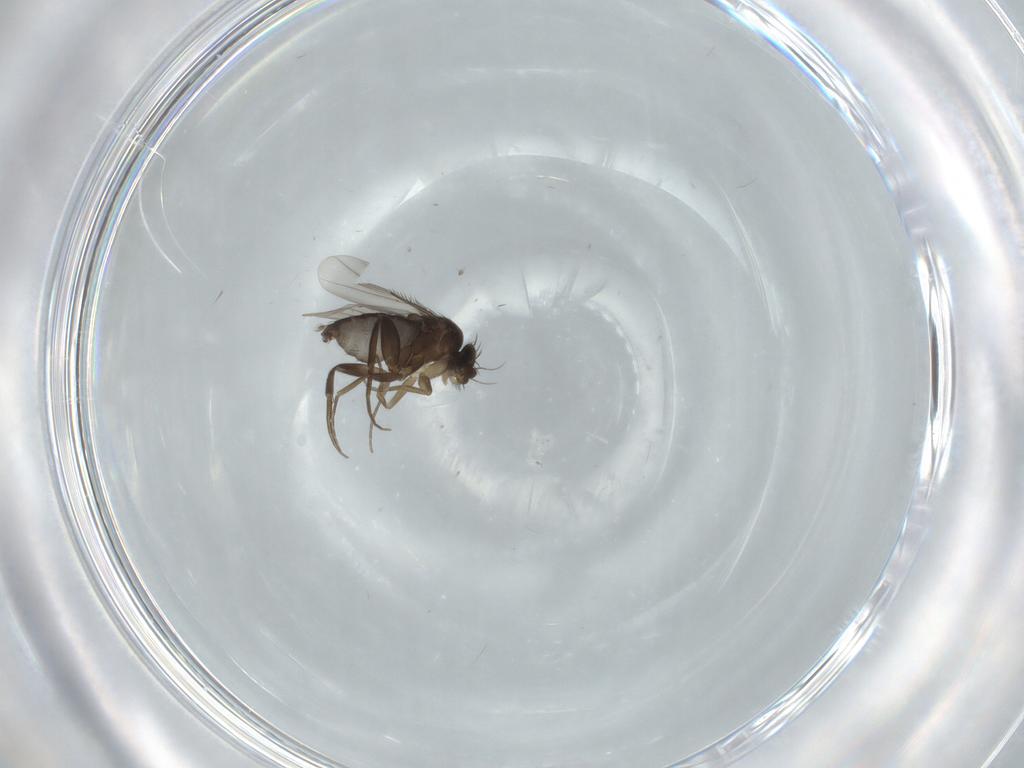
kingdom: Animalia
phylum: Arthropoda
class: Insecta
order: Diptera
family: Phoridae
